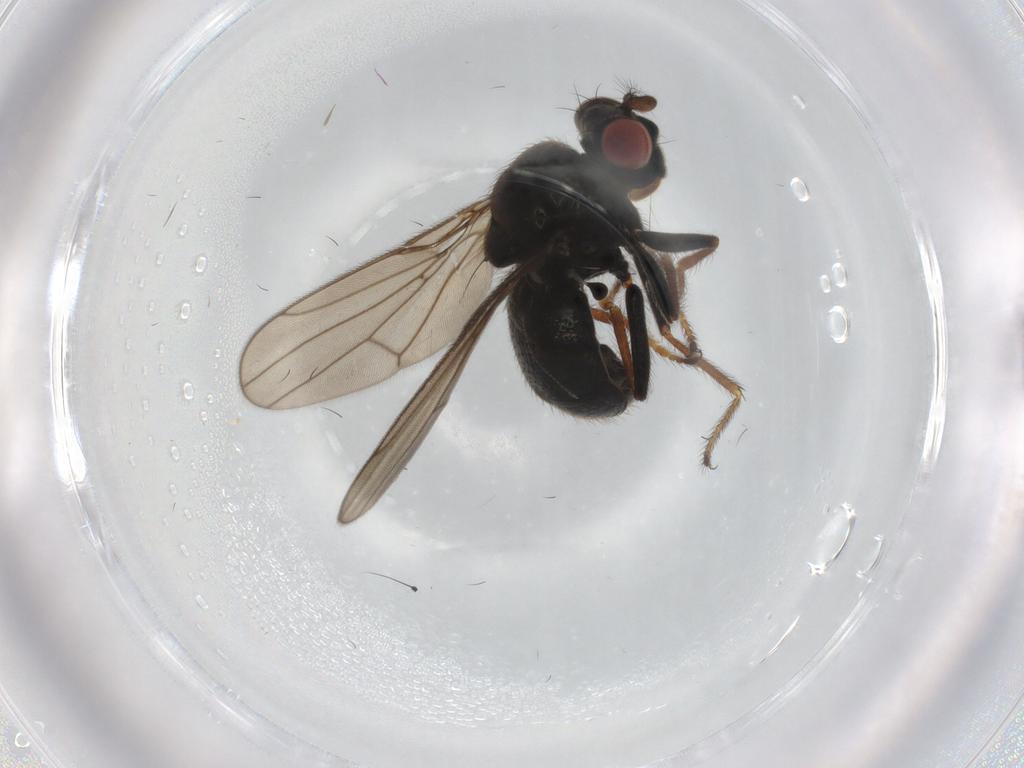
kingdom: Animalia
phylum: Arthropoda
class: Insecta
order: Diptera
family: Ephydridae
